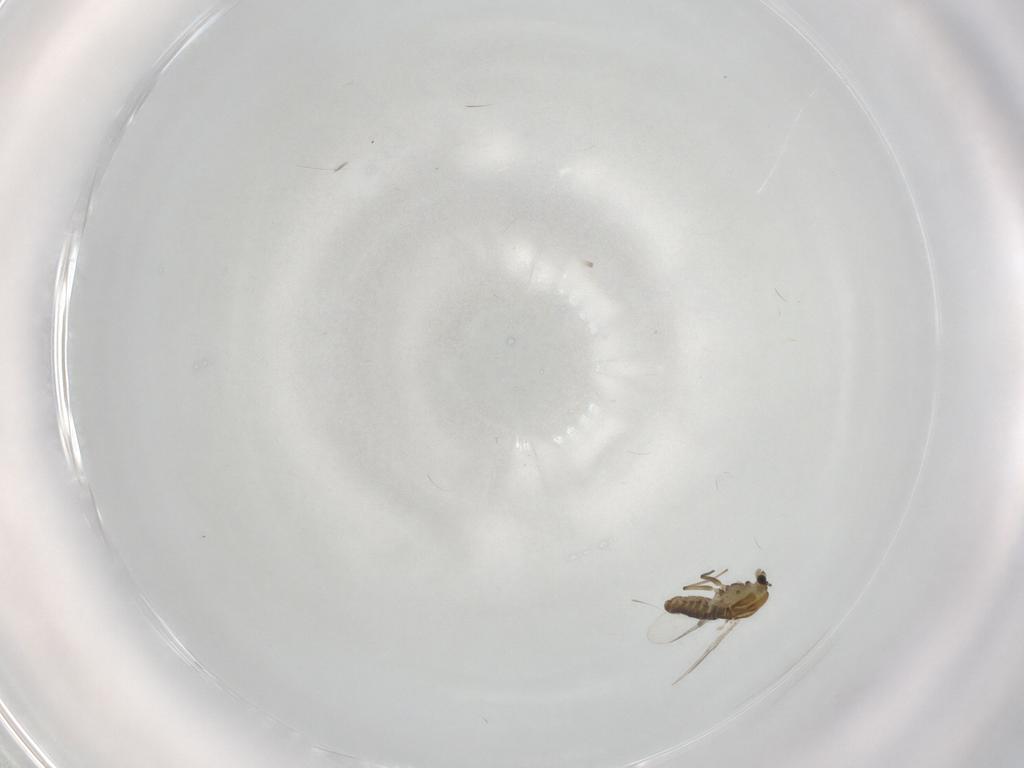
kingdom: Animalia
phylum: Arthropoda
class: Insecta
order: Diptera
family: Chironomidae
